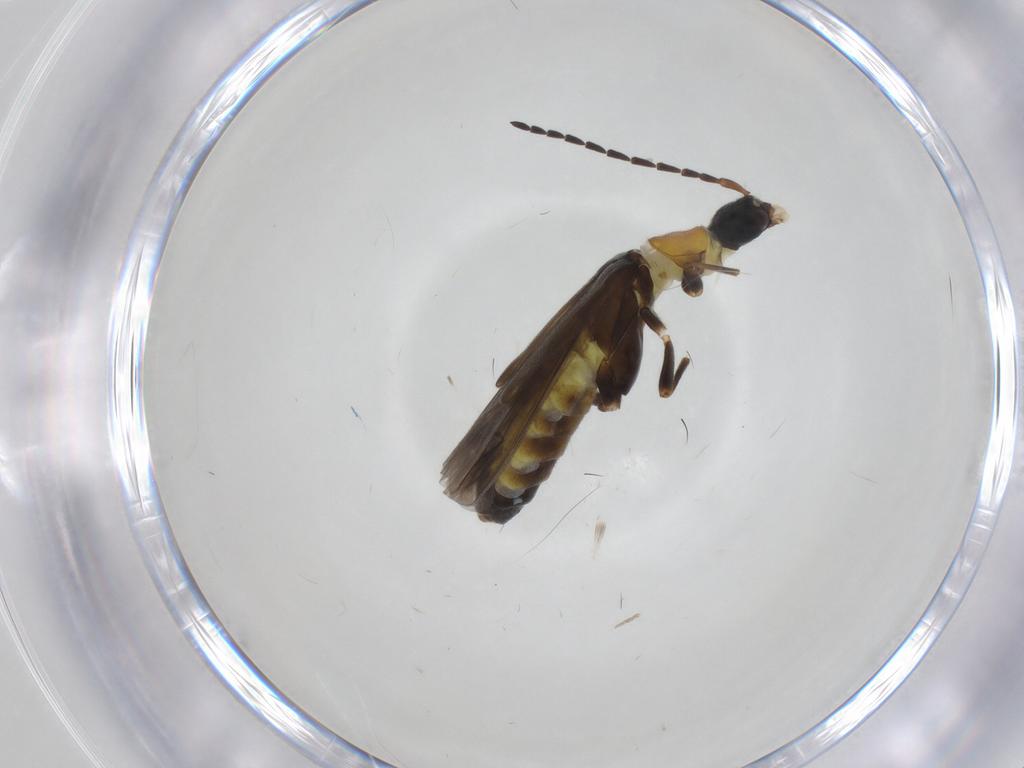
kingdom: Animalia
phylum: Arthropoda
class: Insecta
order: Coleoptera
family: Cantharidae
